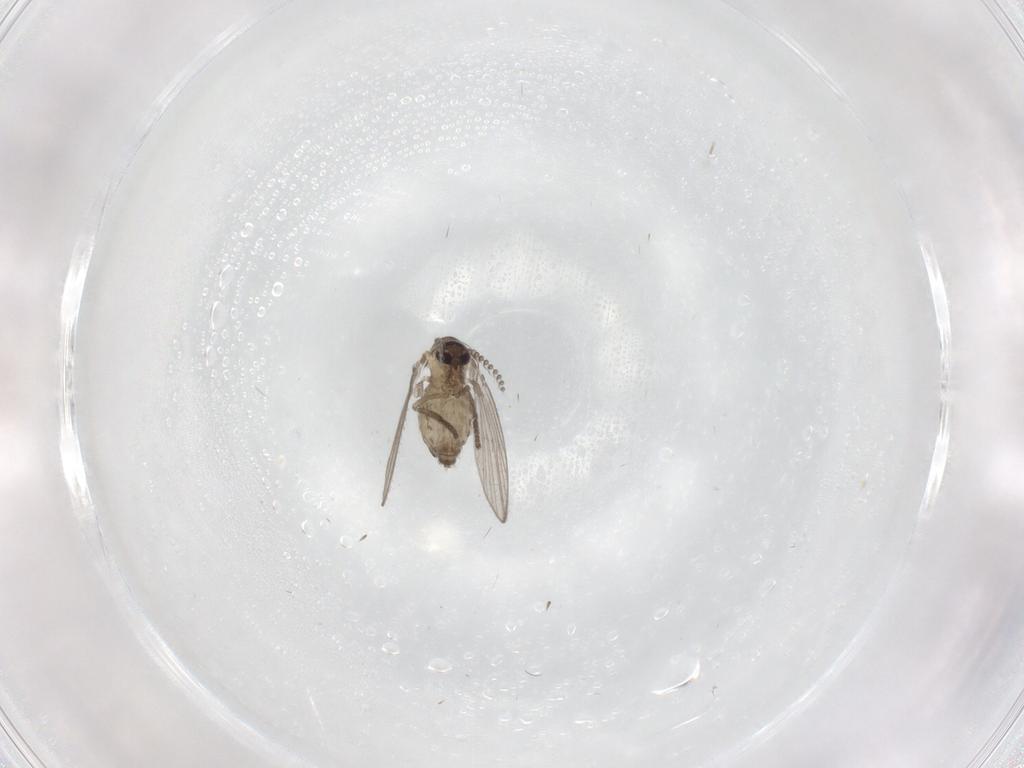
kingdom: Animalia
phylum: Arthropoda
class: Insecta
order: Diptera
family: Psychodidae
